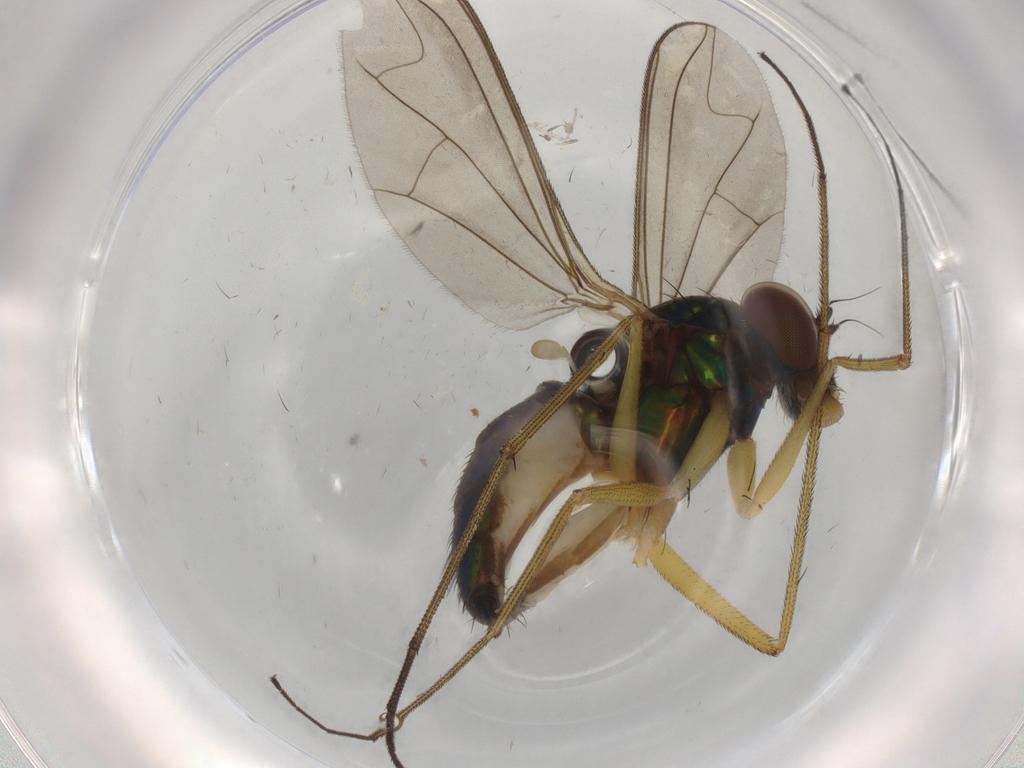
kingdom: Animalia
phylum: Arthropoda
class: Insecta
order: Diptera
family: Dolichopodidae
